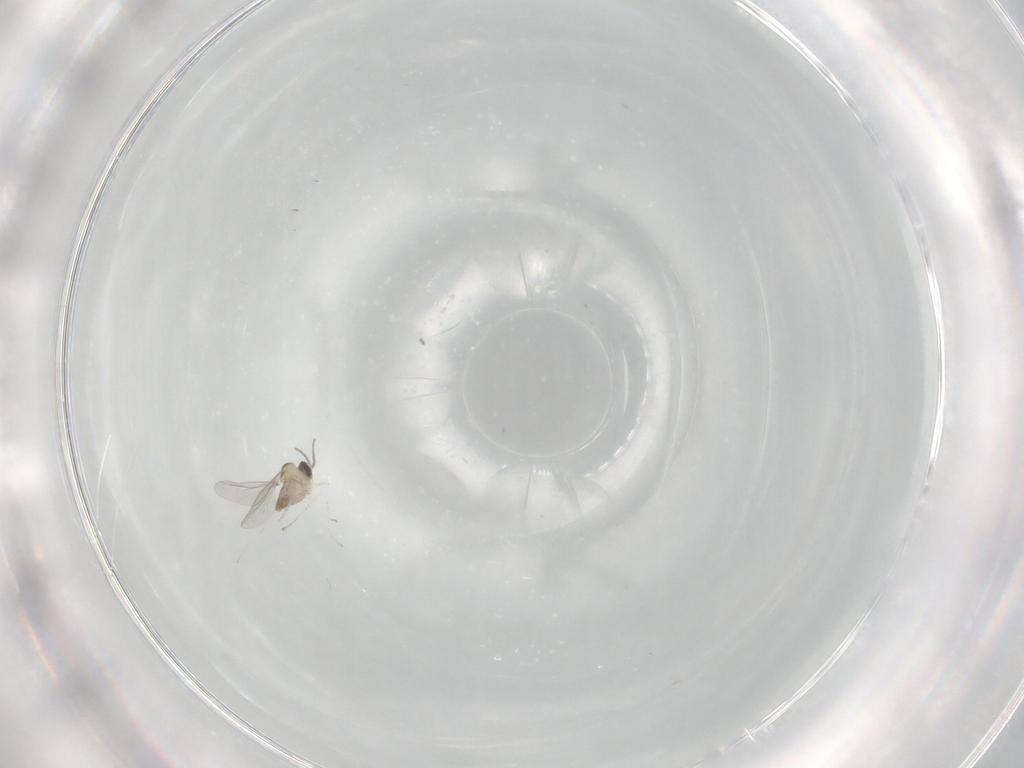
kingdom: Animalia
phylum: Arthropoda
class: Insecta
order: Diptera
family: Cecidomyiidae
